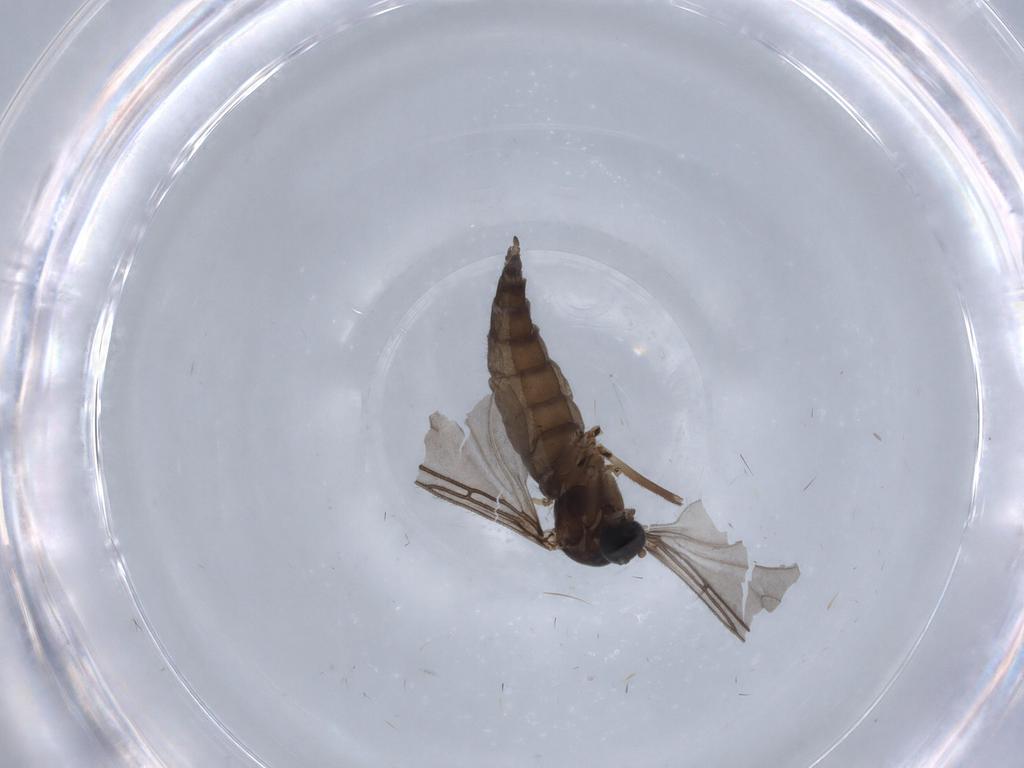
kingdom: Animalia
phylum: Arthropoda
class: Insecta
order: Diptera
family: Sciaridae
